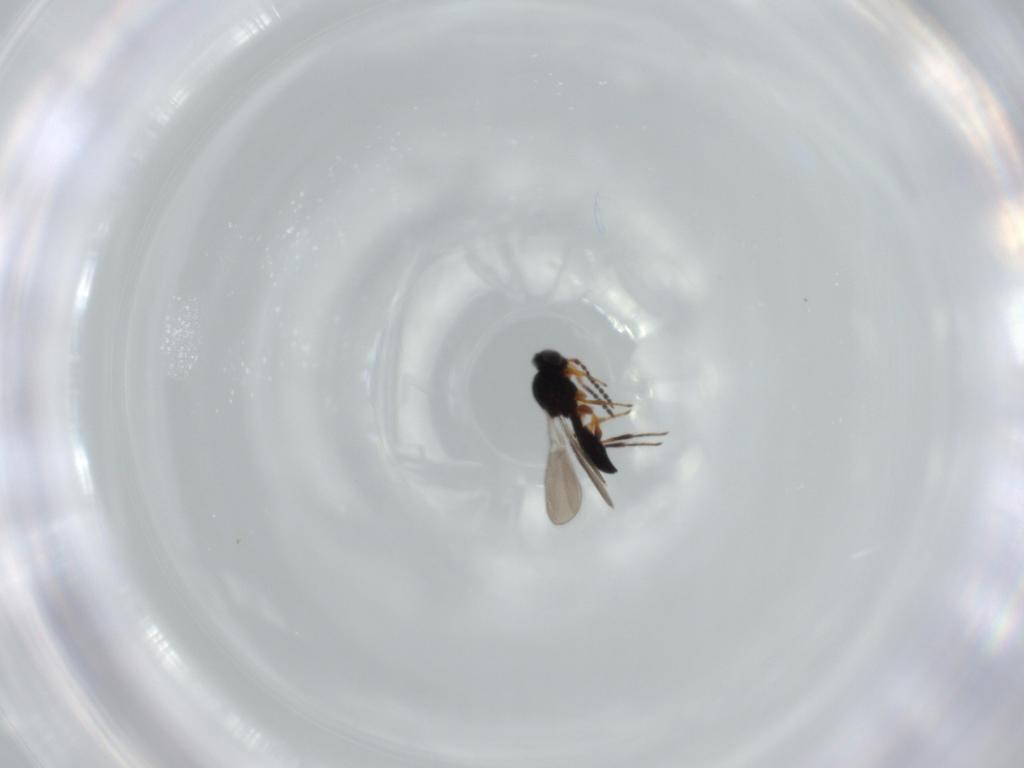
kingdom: Animalia
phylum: Arthropoda
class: Insecta
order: Hymenoptera
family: Platygastridae
